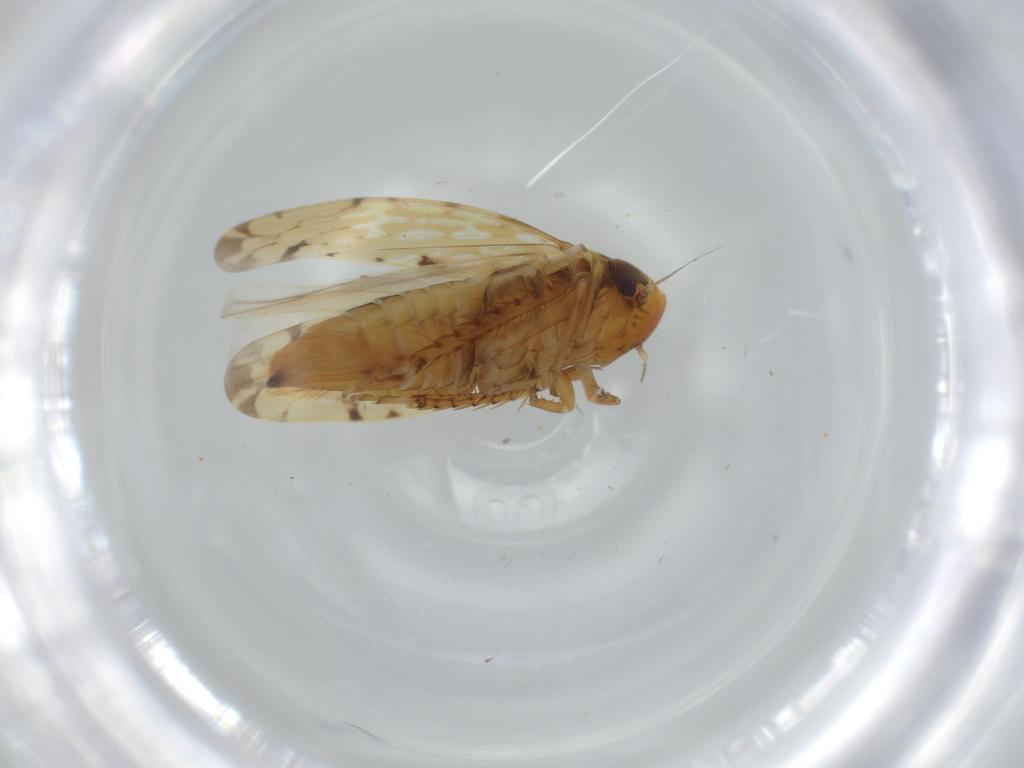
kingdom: Animalia
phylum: Arthropoda
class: Insecta
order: Hemiptera
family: Cicadellidae
